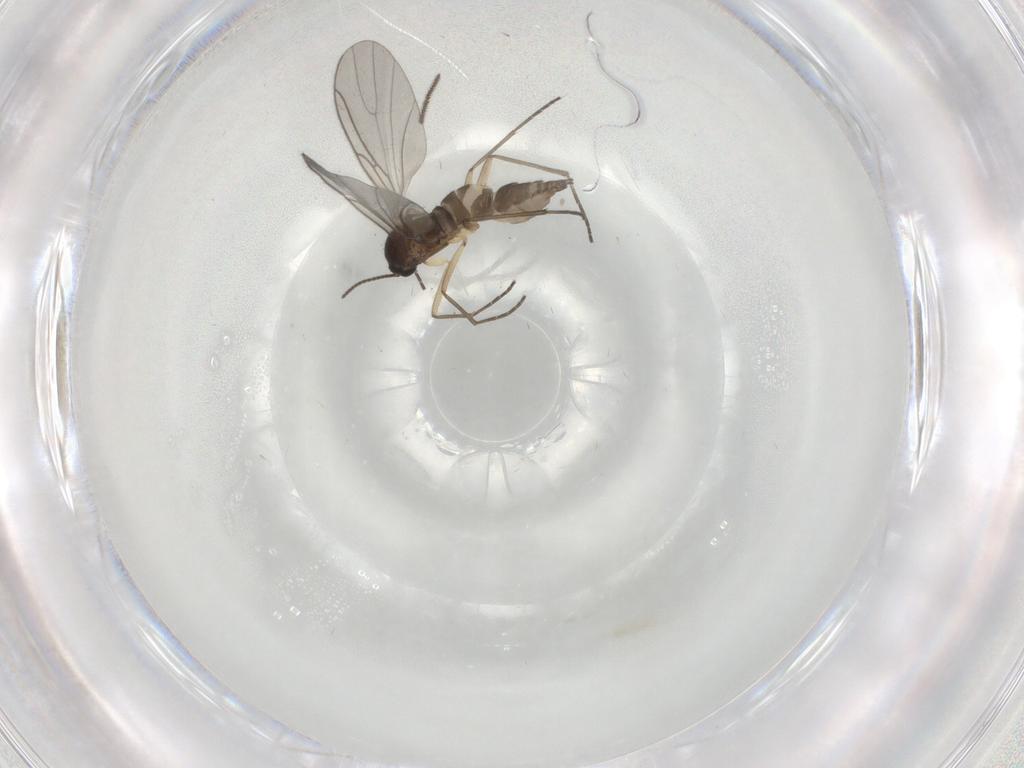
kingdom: Animalia
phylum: Arthropoda
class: Insecta
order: Diptera
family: Sciaridae
